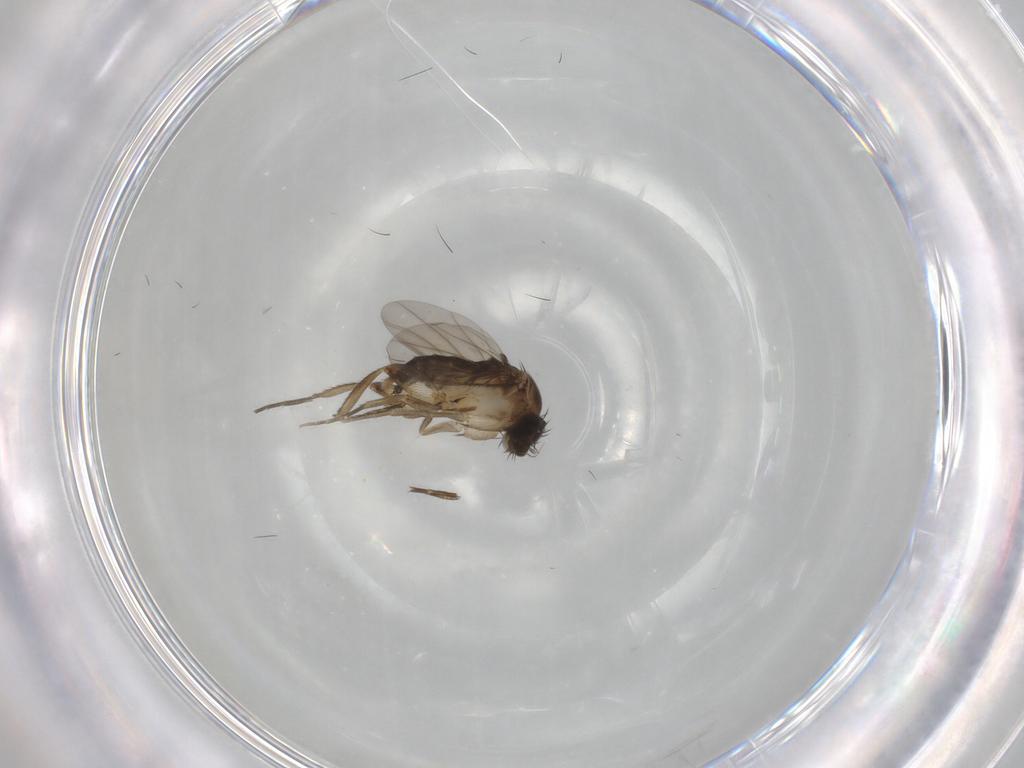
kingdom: Animalia
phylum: Arthropoda
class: Insecta
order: Diptera
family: Phoridae
